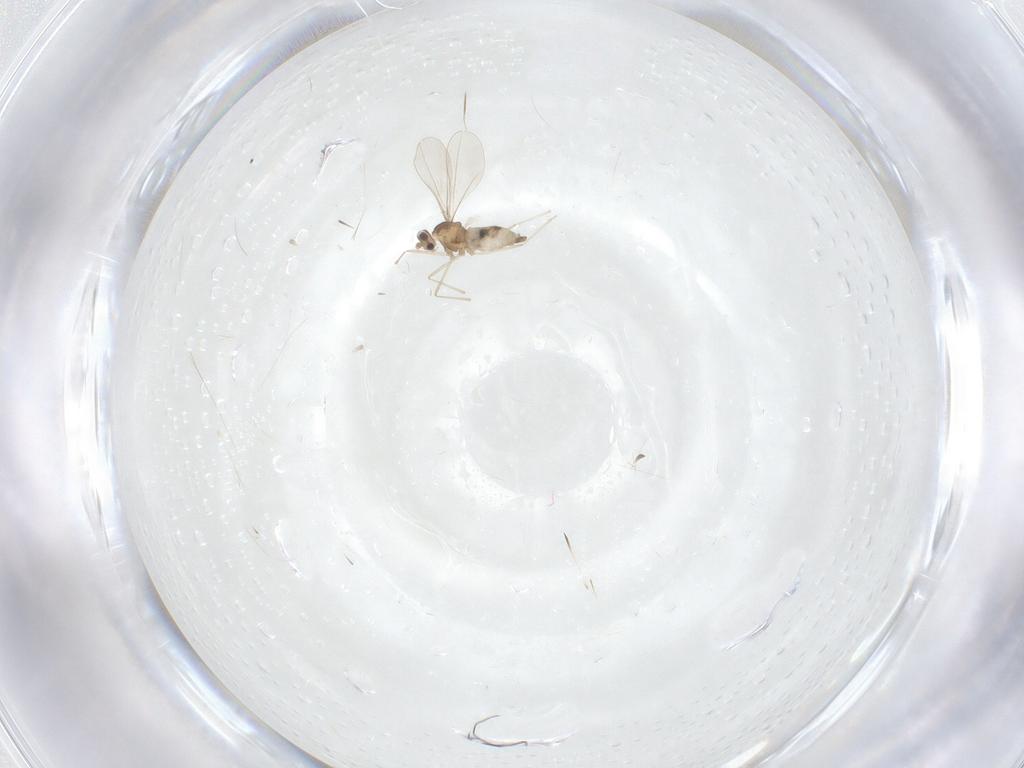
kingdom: Animalia
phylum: Arthropoda
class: Insecta
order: Diptera
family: Cecidomyiidae
